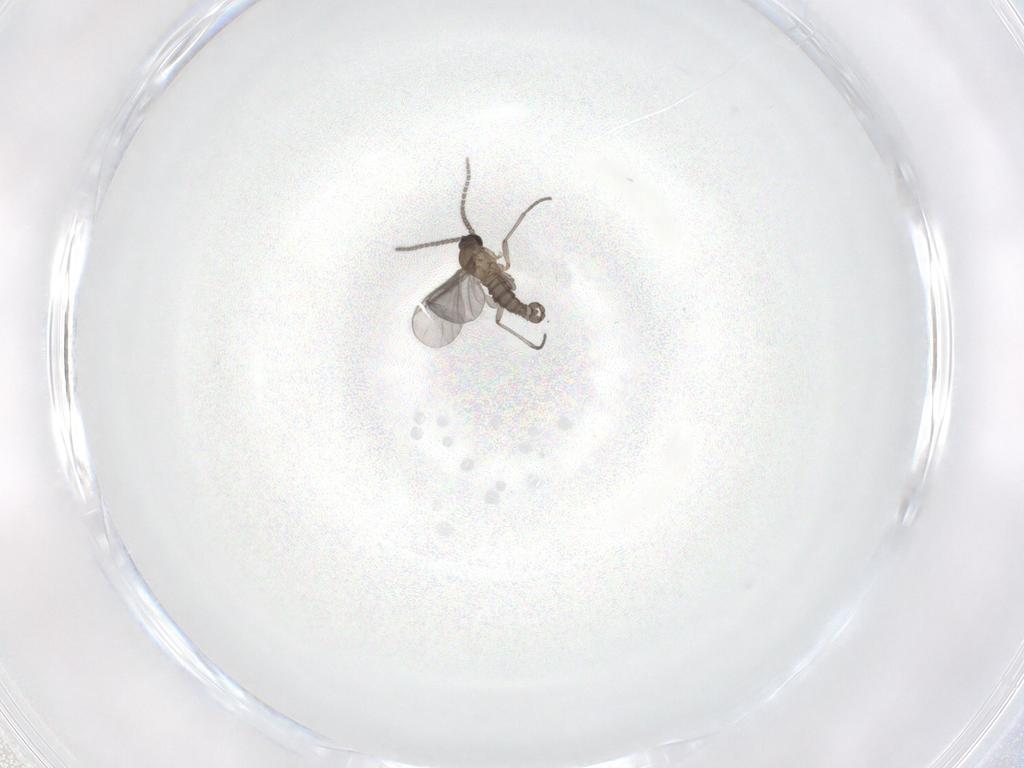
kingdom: Animalia
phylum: Arthropoda
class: Insecta
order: Diptera
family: Sciaridae
